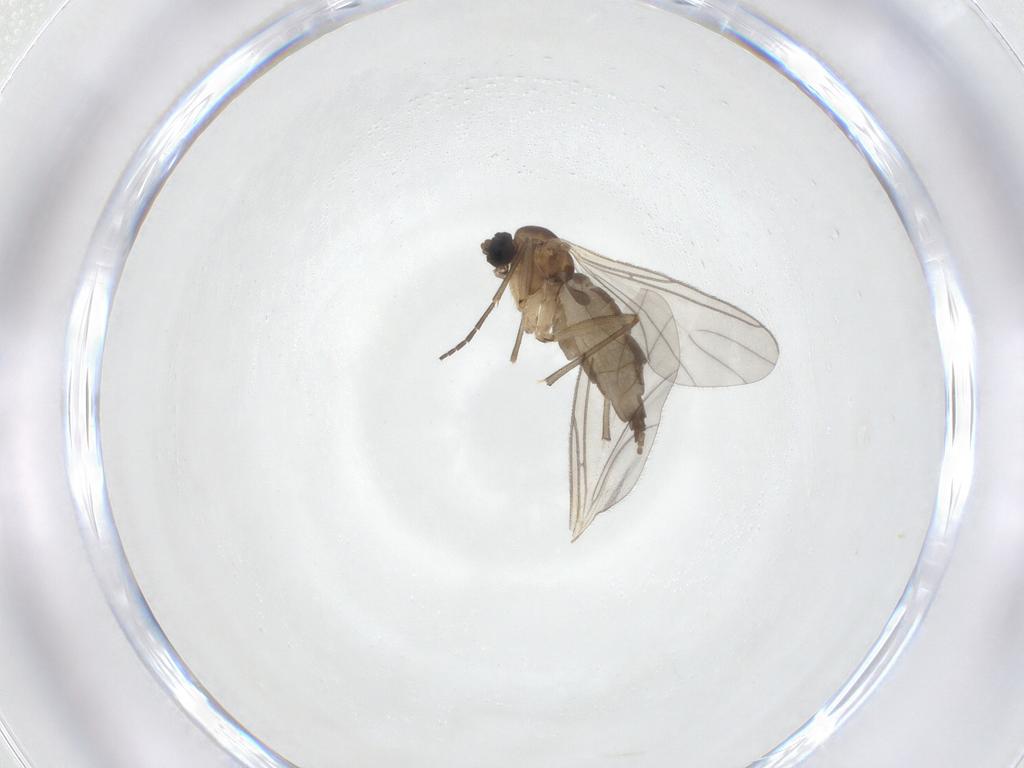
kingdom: Animalia
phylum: Arthropoda
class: Insecta
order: Diptera
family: Sciaridae
